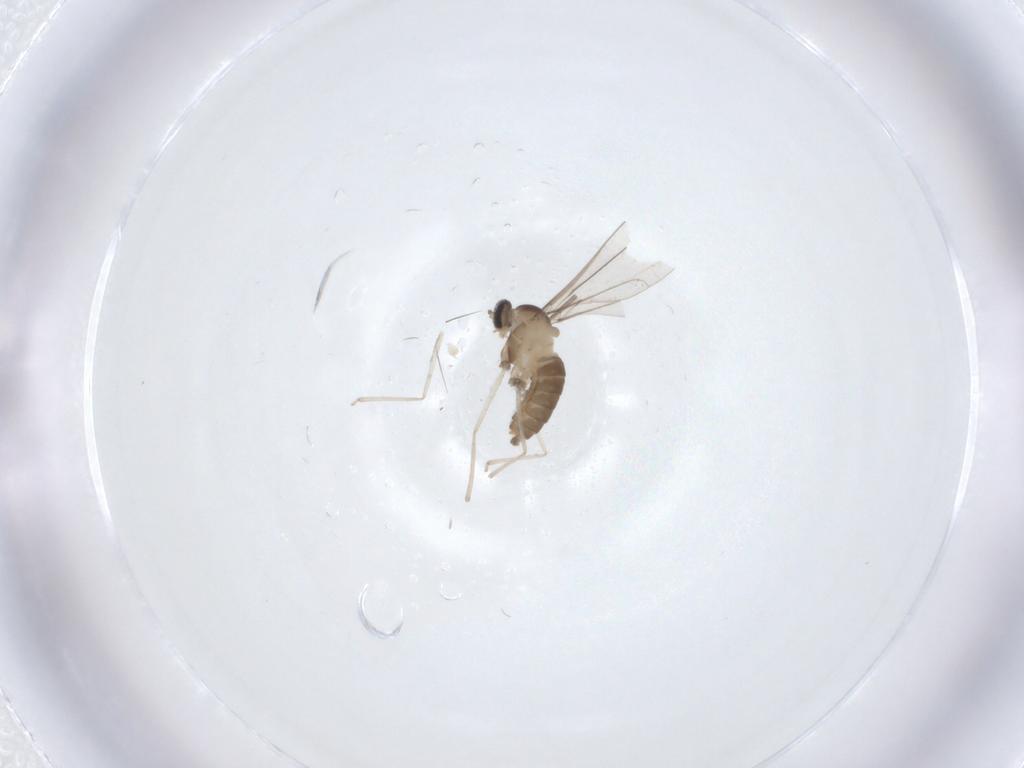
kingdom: Animalia
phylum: Arthropoda
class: Insecta
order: Diptera
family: Cecidomyiidae
